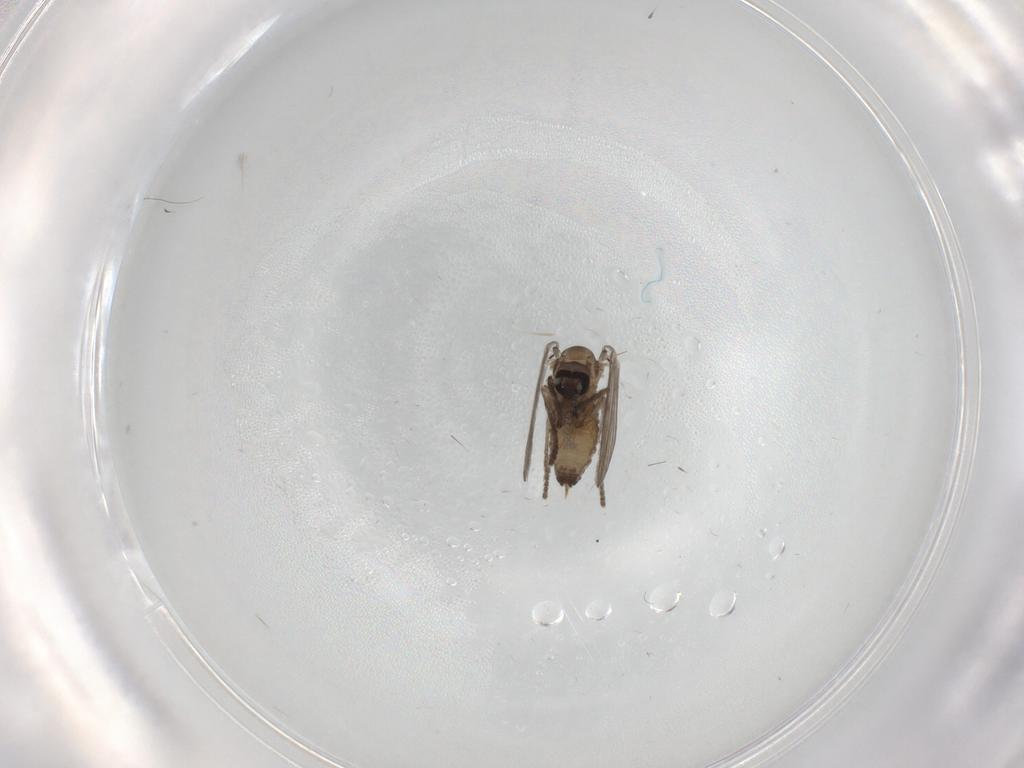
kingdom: Animalia
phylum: Arthropoda
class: Insecta
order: Diptera
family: Psychodidae
